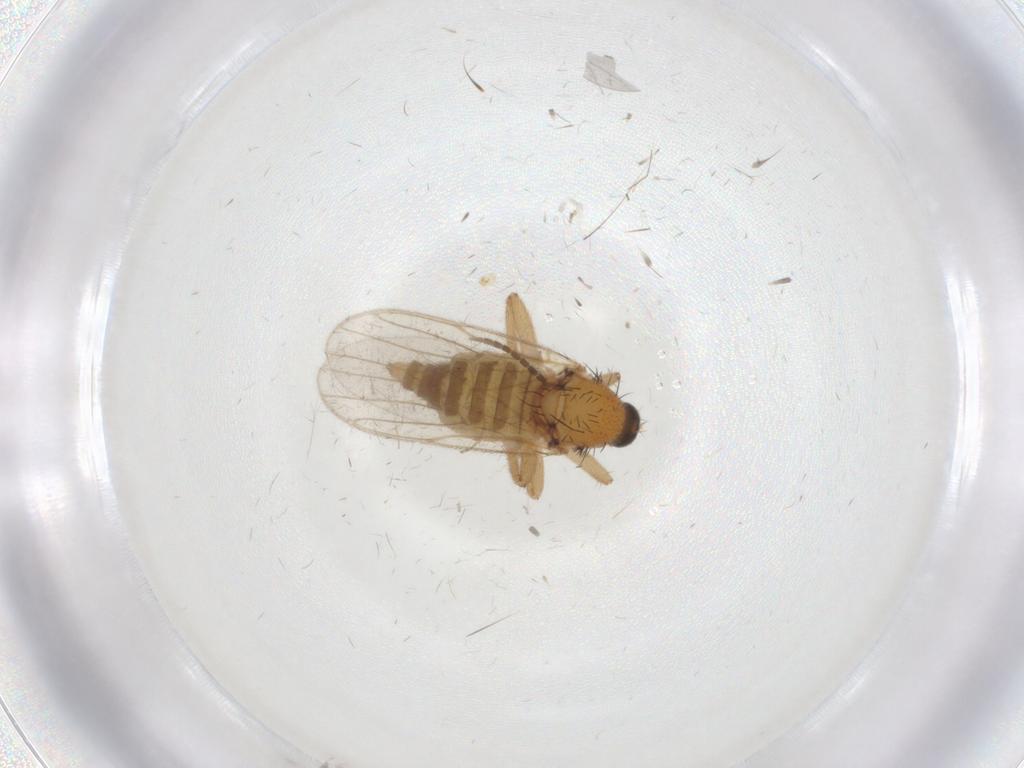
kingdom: Animalia
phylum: Arthropoda
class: Insecta
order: Diptera
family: Hybotidae
